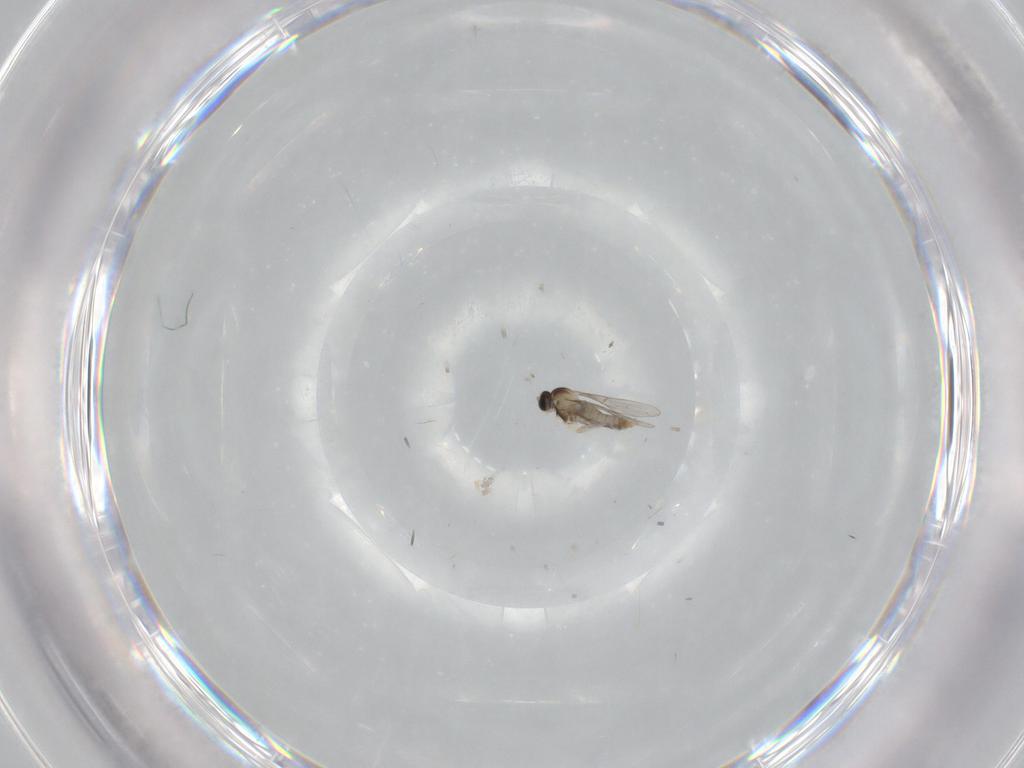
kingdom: Animalia
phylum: Arthropoda
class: Insecta
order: Diptera
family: Chironomidae
